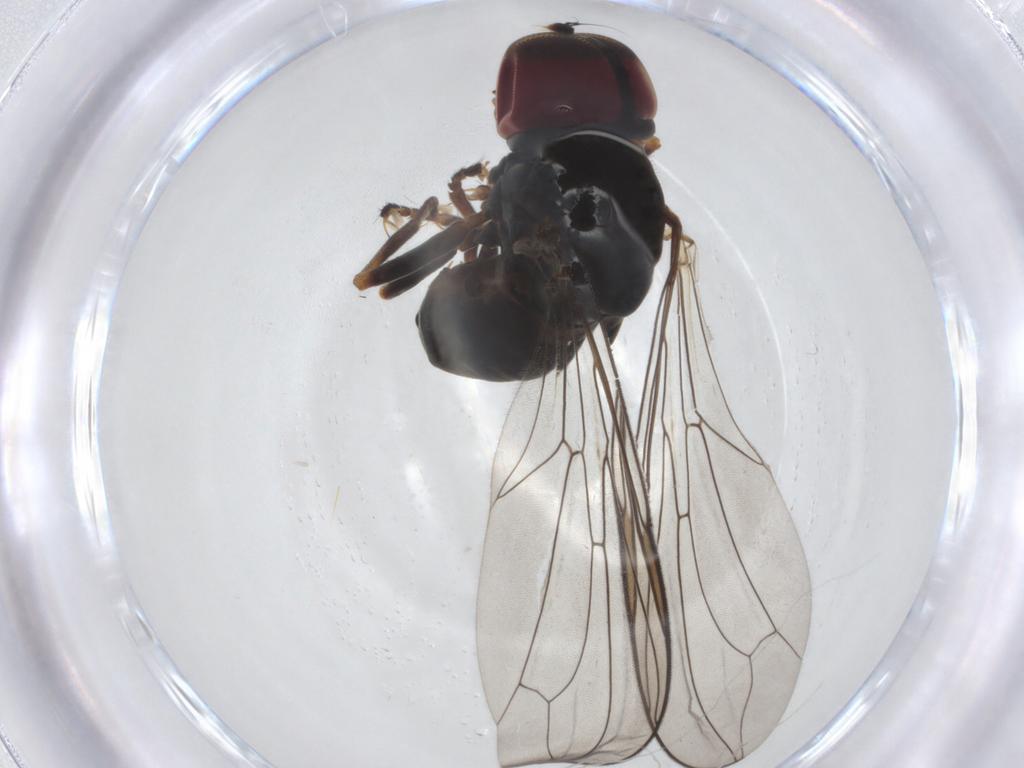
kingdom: Animalia
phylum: Arthropoda
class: Insecta
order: Diptera
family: Pipunculidae
